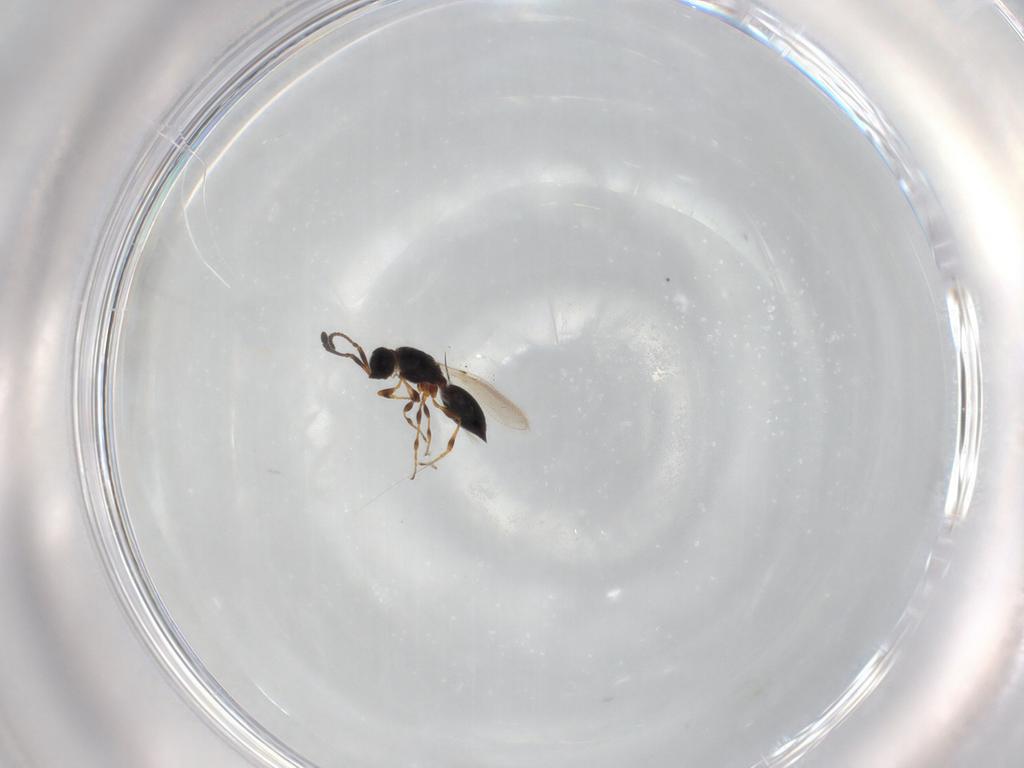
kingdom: Animalia
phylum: Arthropoda
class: Insecta
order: Hymenoptera
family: Diapriidae
